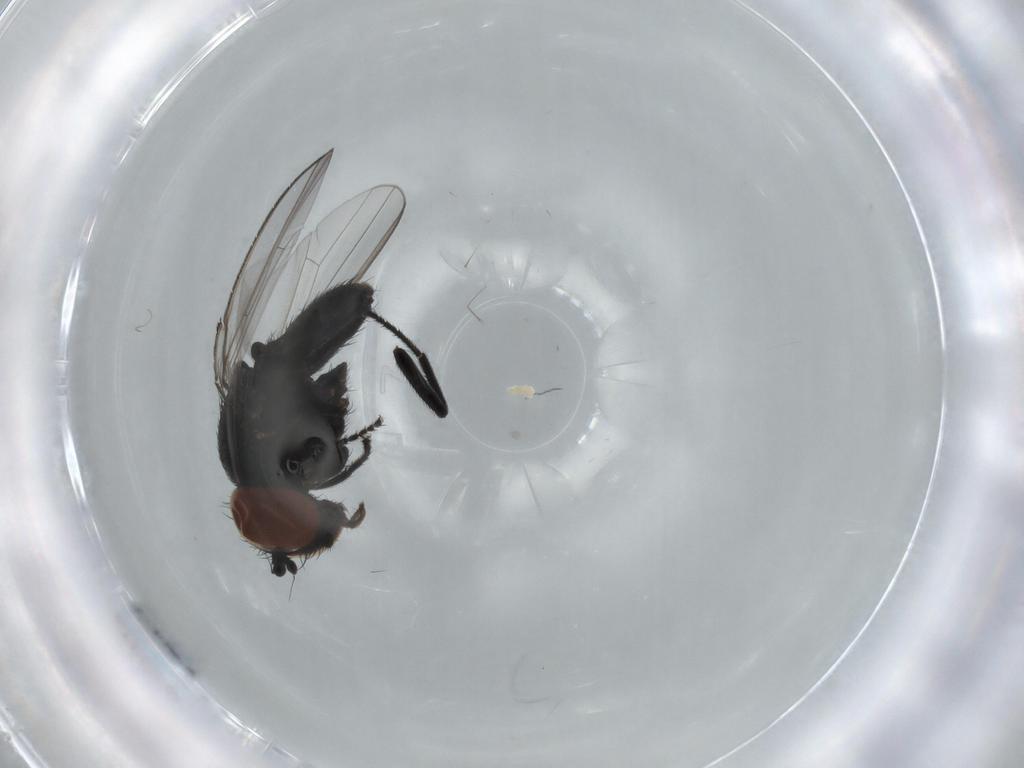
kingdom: Animalia
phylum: Arthropoda
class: Insecta
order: Diptera
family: Milichiidae
